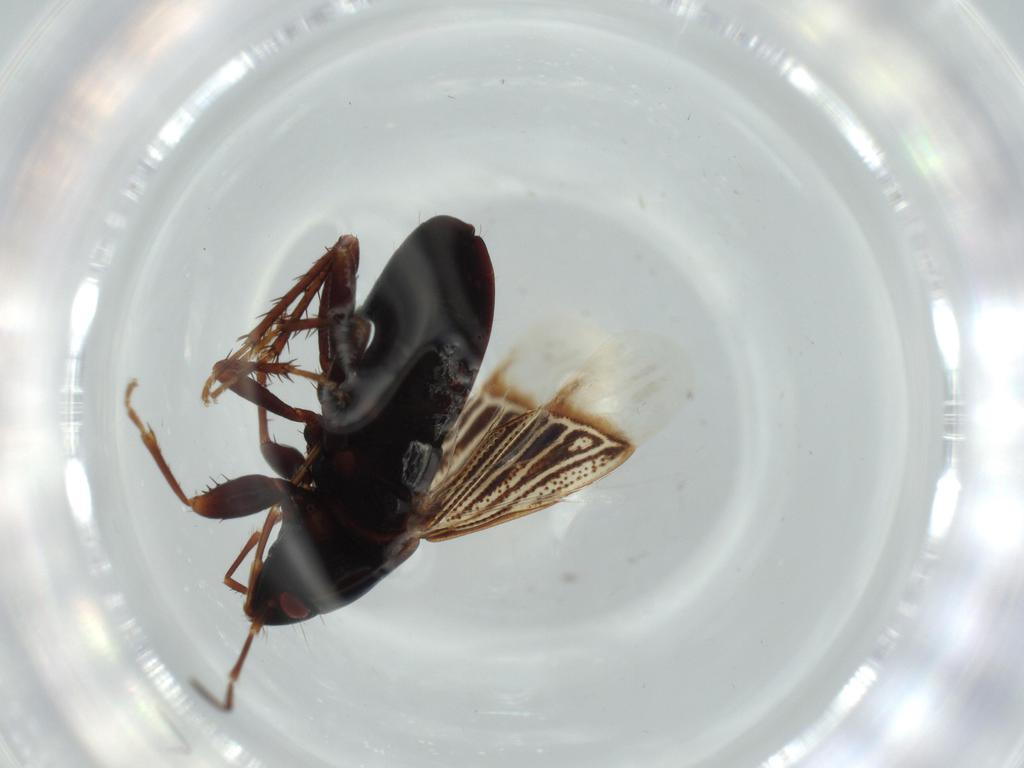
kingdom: Animalia
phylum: Arthropoda
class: Insecta
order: Hemiptera
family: Rhyparochromidae
